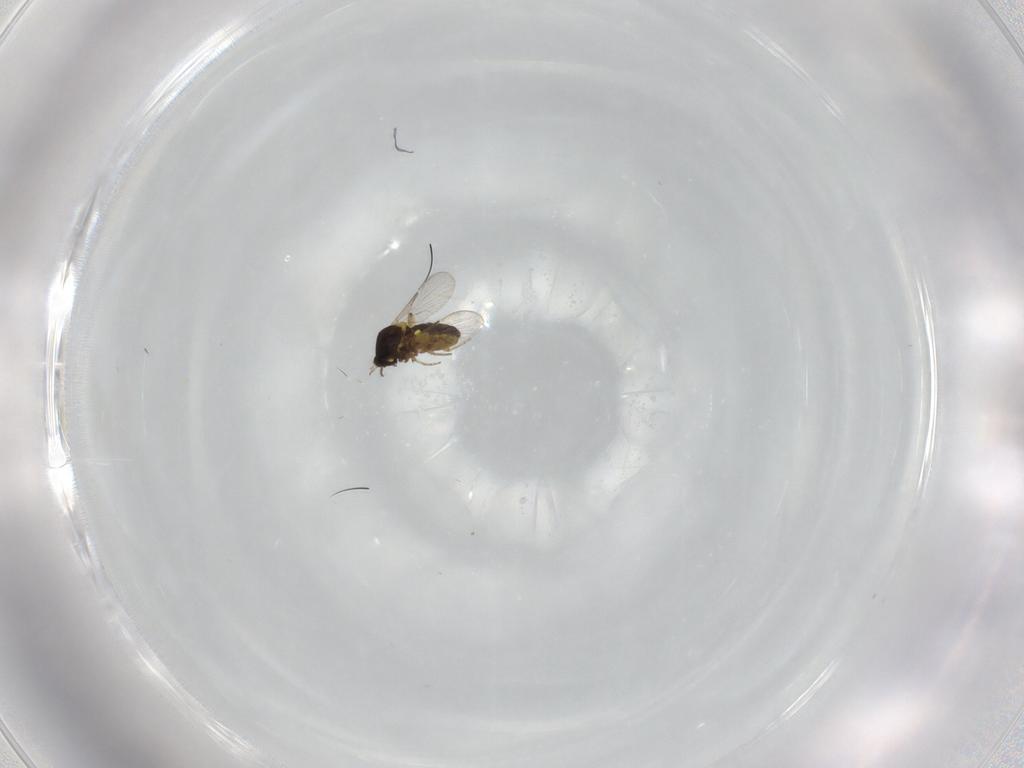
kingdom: Animalia
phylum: Arthropoda
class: Insecta
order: Diptera
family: Ceratopogonidae
